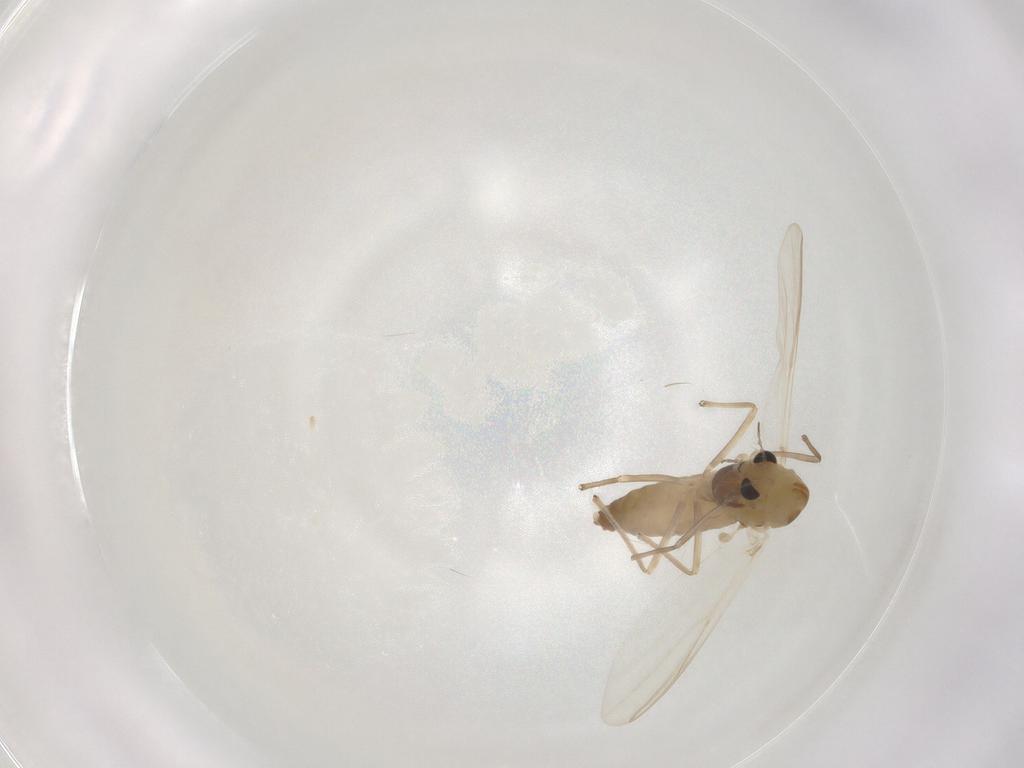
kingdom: Animalia
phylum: Arthropoda
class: Insecta
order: Diptera
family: Chironomidae
